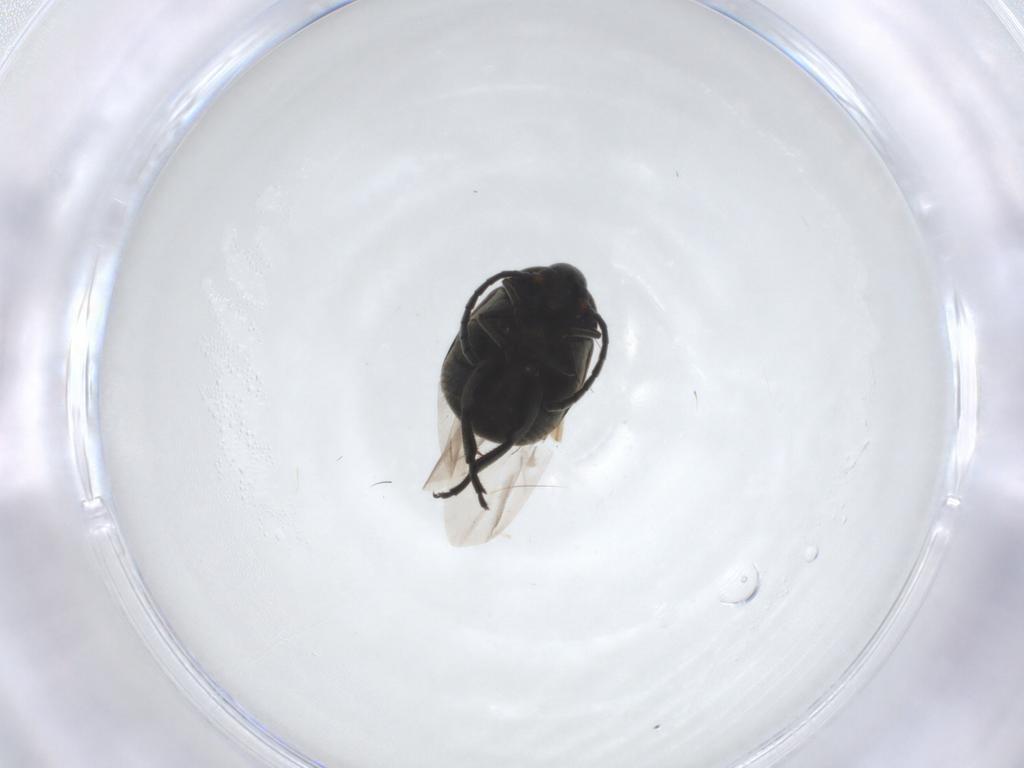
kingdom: Animalia
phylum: Arthropoda
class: Insecta
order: Coleoptera
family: Chrysomelidae
